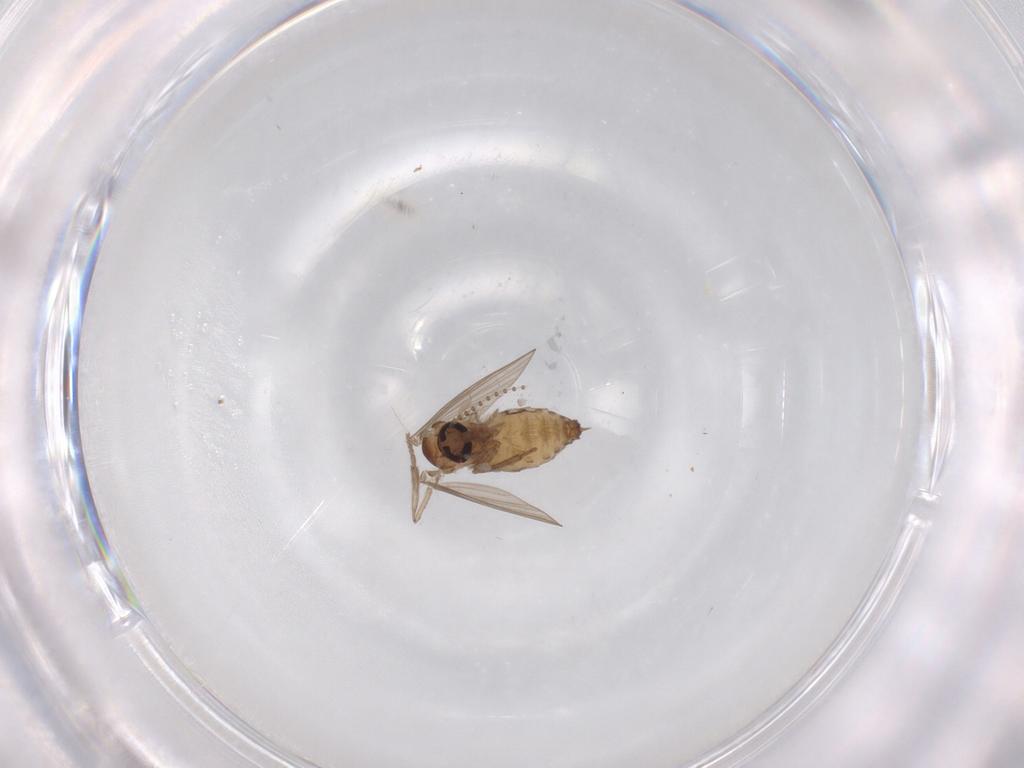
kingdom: Animalia
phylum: Arthropoda
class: Insecta
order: Diptera
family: Psychodidae
